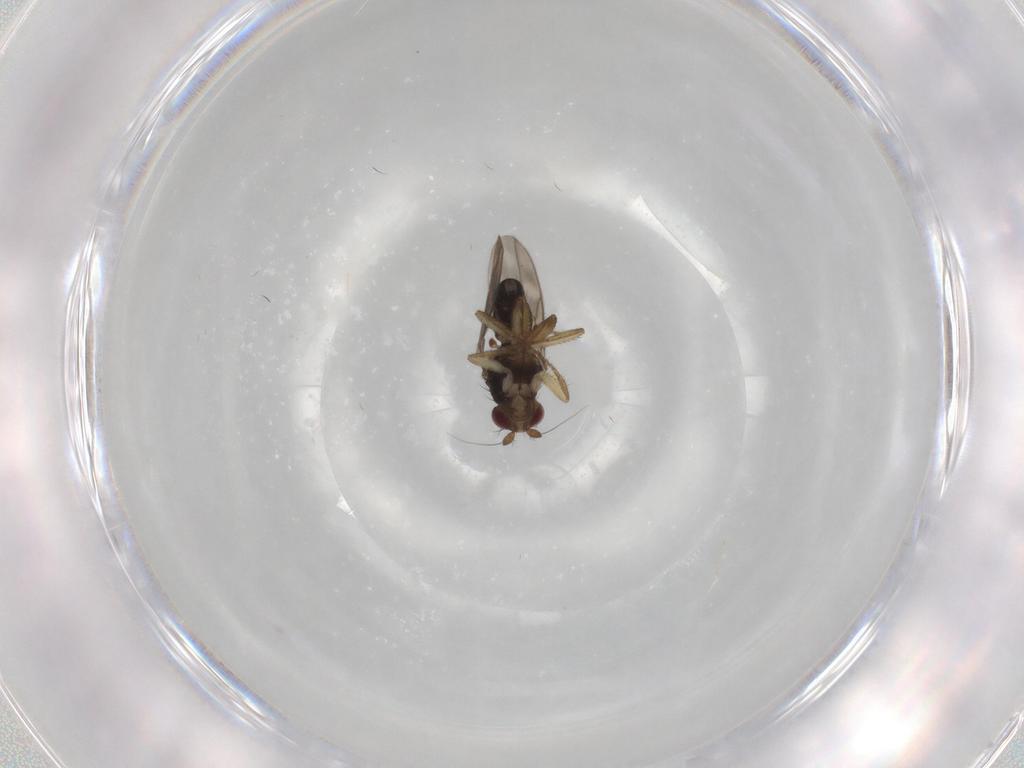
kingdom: Animalia
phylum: Arthropoda
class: Insecta
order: Diptera
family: Sphaeroceridae
